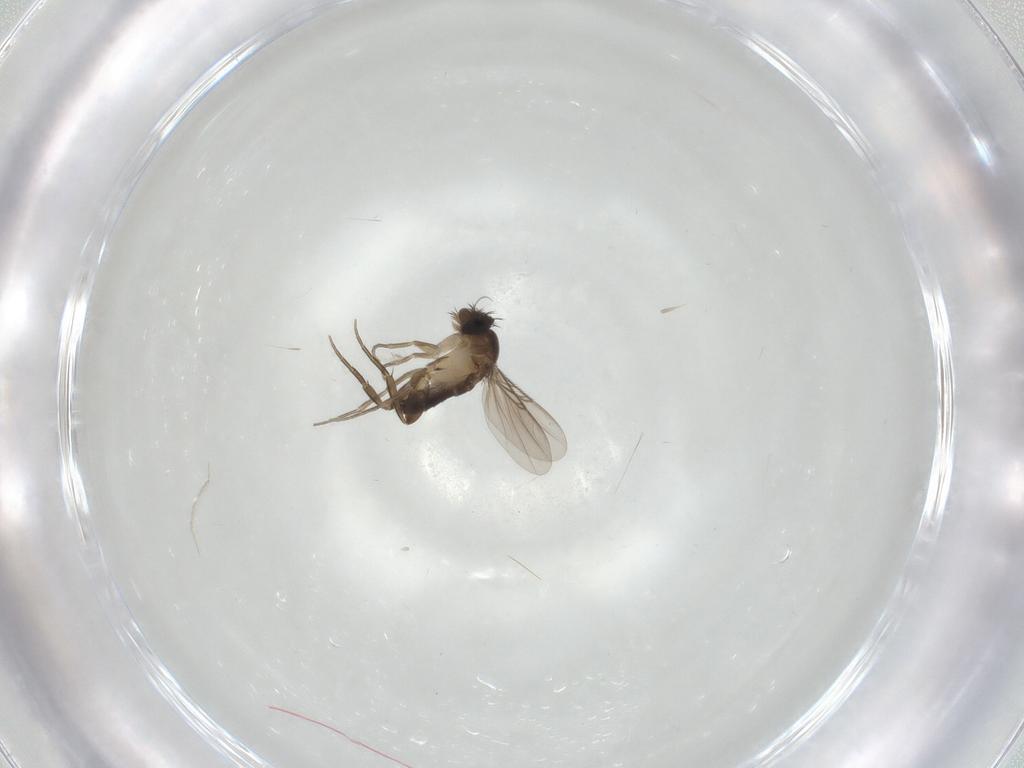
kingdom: Animalia
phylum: Arthropoda
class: Insecta
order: Diptera
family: Phoridae
